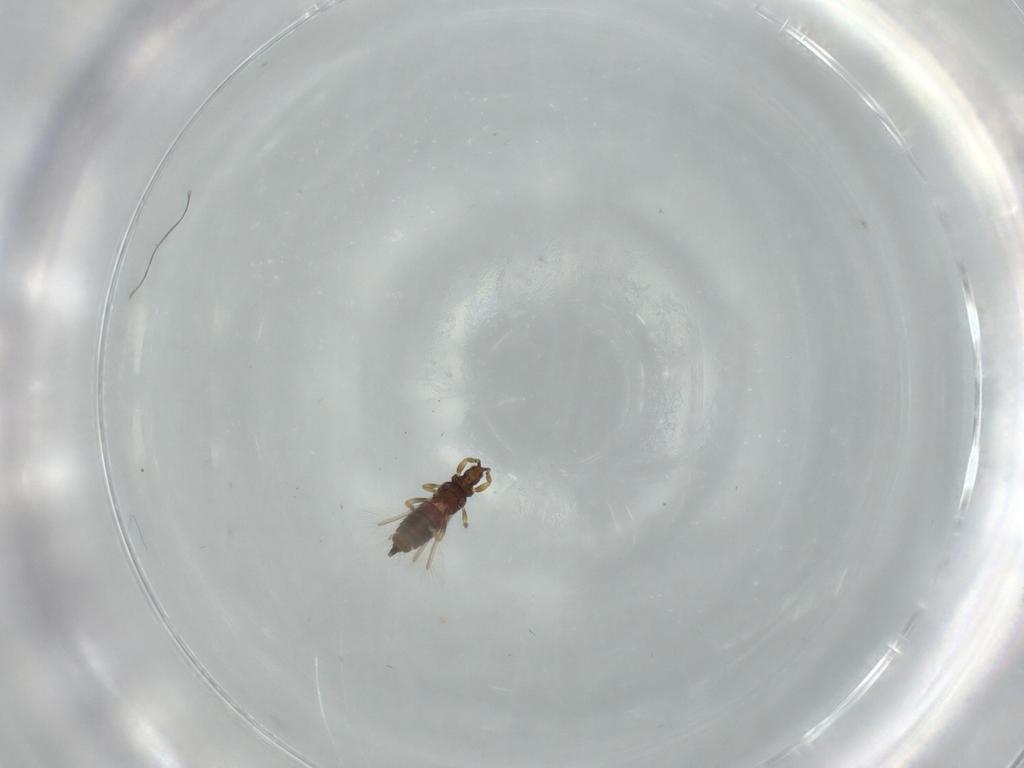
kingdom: Animalia
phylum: Arthropoda
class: Insecta
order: Thysanoptera
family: Phlaeothripidae
